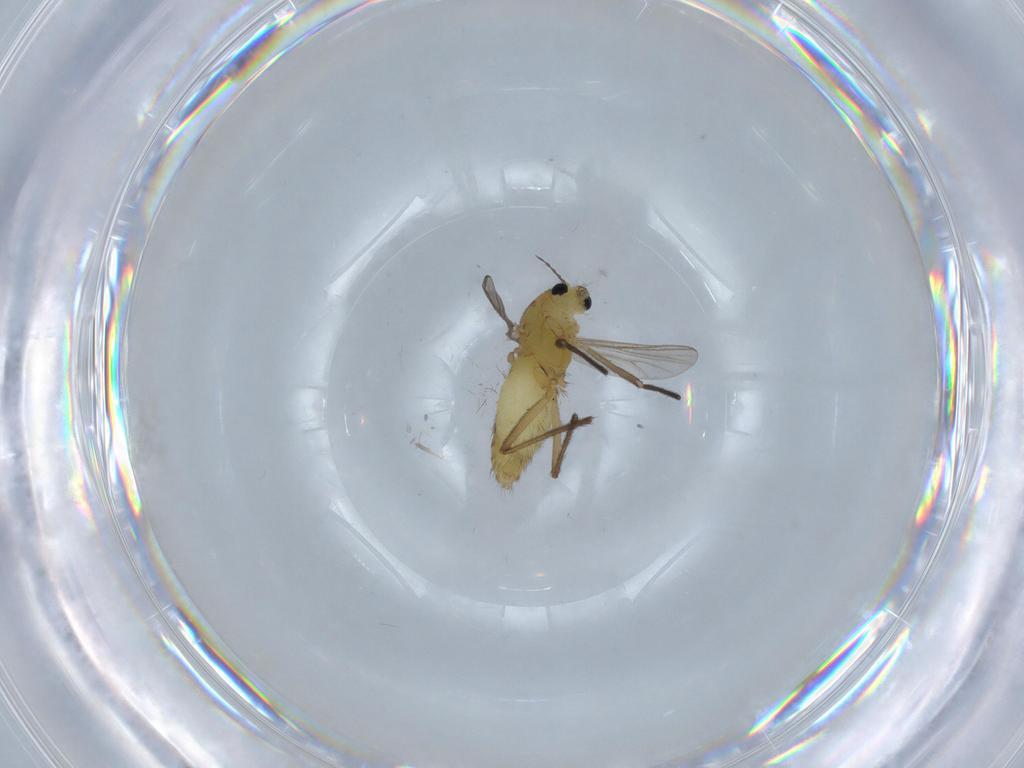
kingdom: Animalia
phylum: Arthropoda
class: Insecta
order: Diptera
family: Chironomidae
